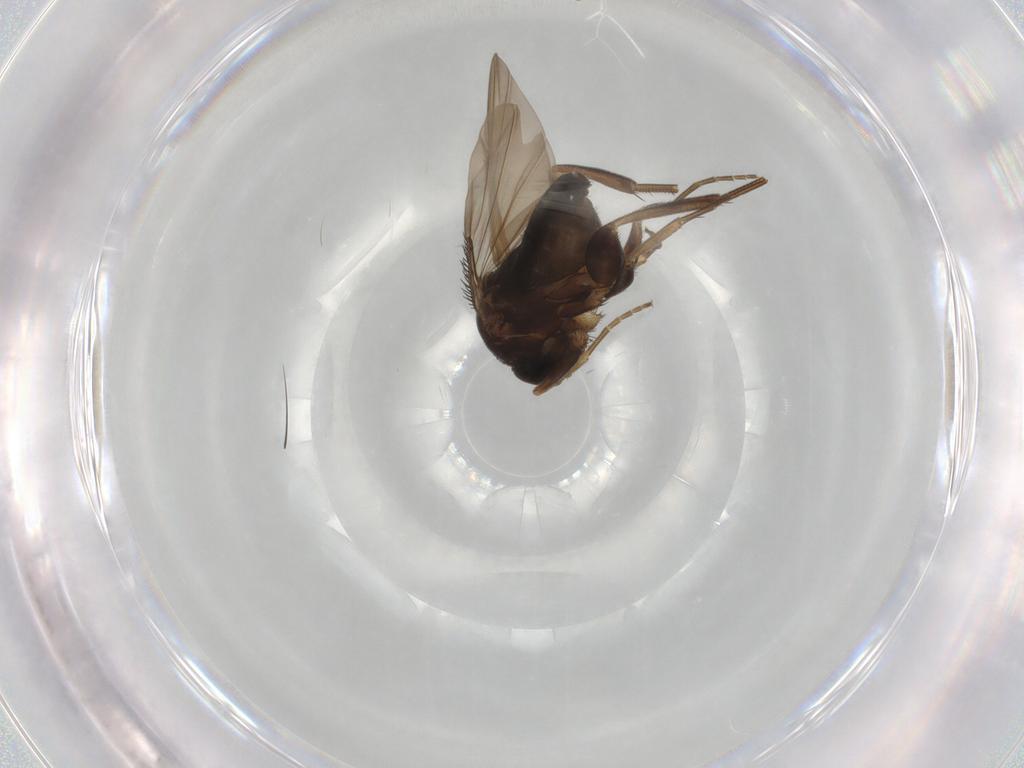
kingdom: Animalia
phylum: Arthropoda
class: Insecta
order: Diptera
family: Phoridae
